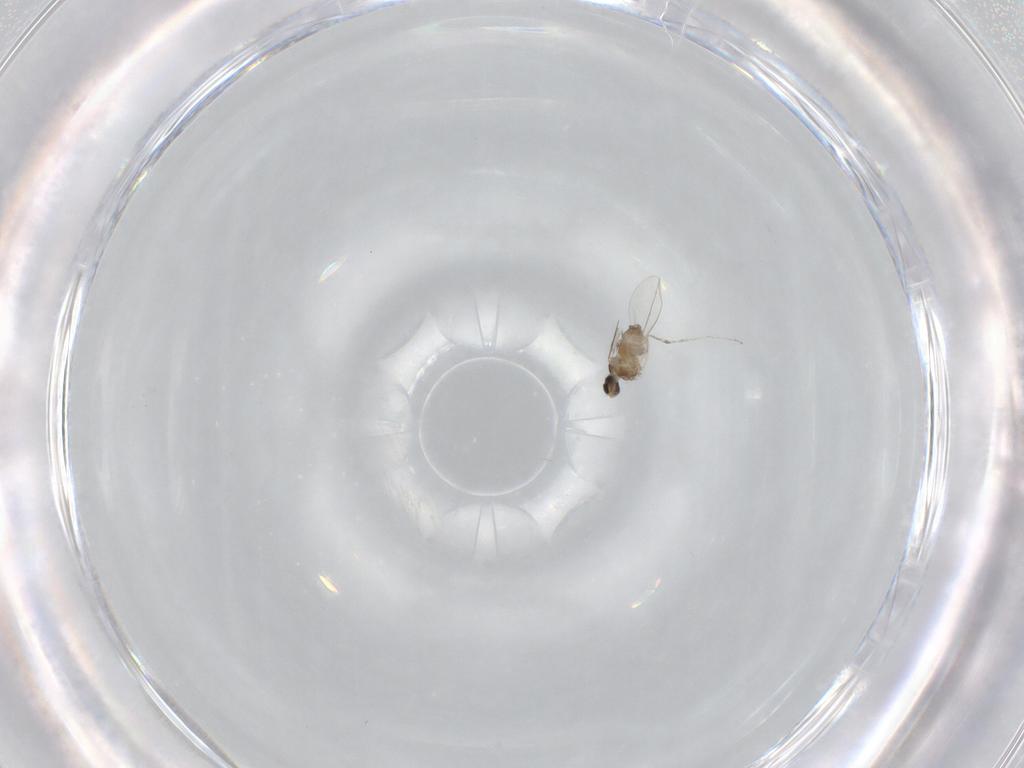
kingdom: Animalia
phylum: Arthropoda
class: Insecta
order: Diptera
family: Cecidomyiidae
